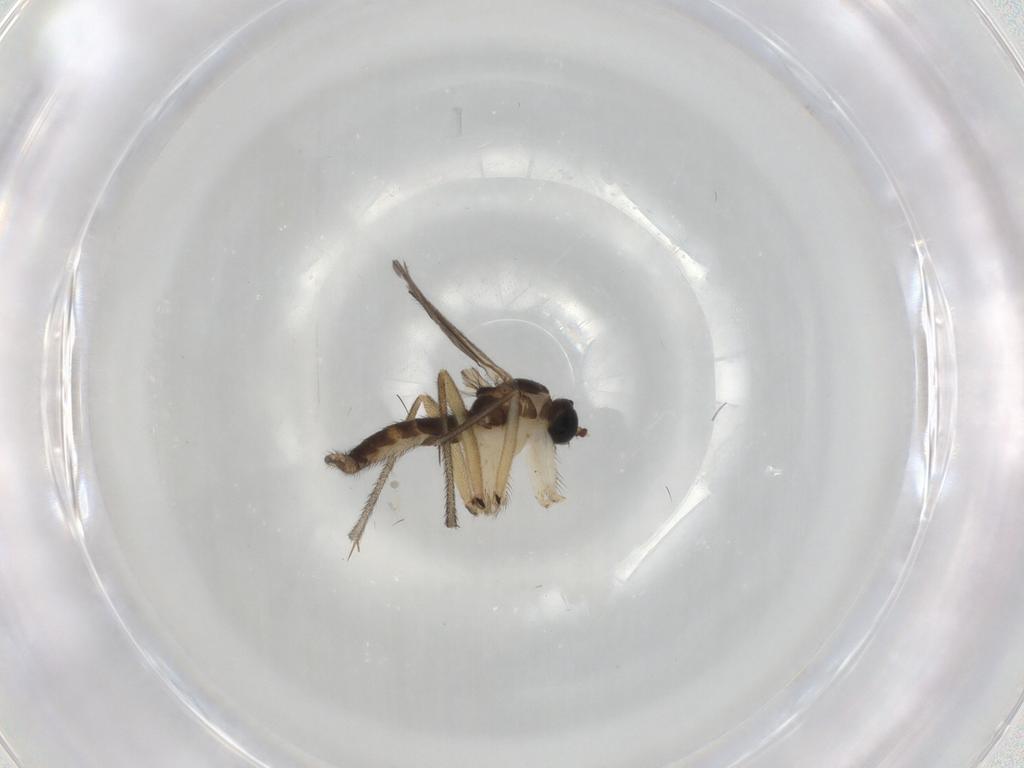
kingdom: Animalia
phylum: Arthropoda
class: Insecta
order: Diptera
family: Sciaridae
